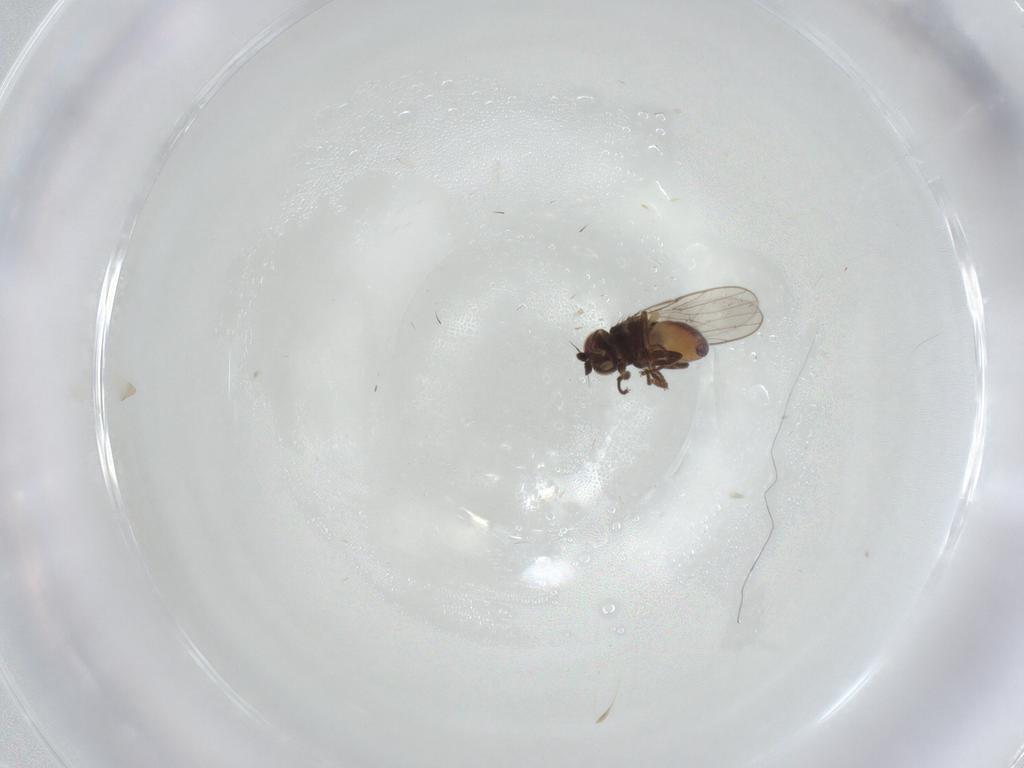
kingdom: Animalia
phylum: Arthropoda
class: Insecta
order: Diptera
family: Tachinidae
